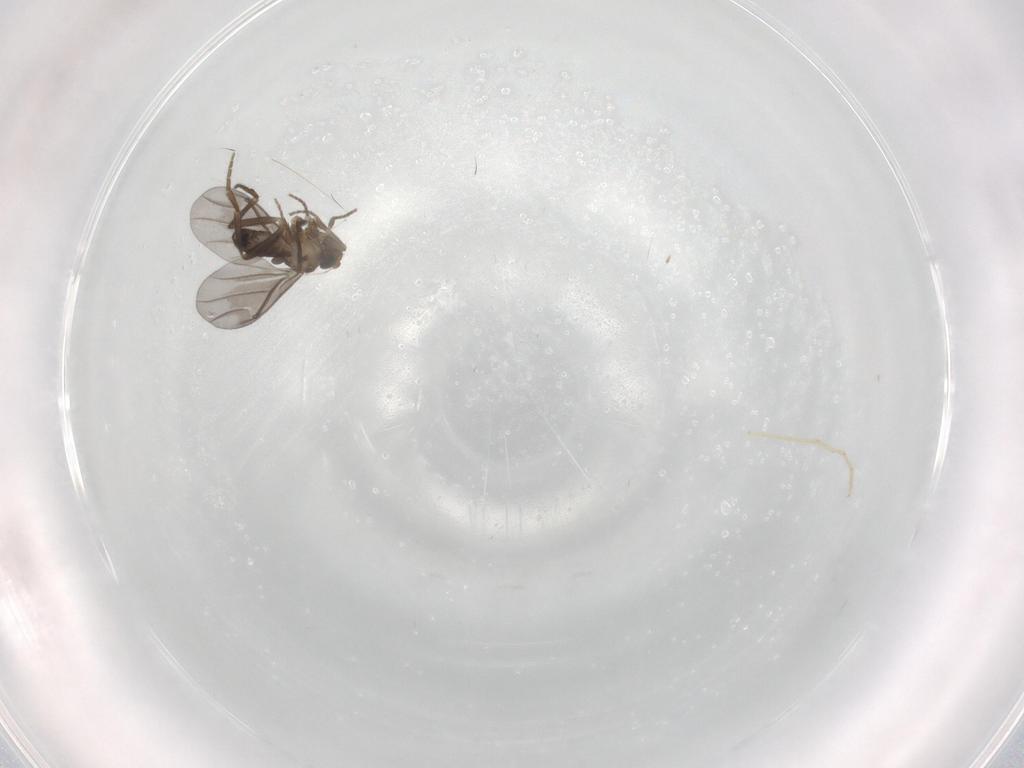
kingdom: Animalia
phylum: Arthropoda
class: Insecta
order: Diptera
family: Phoridae
